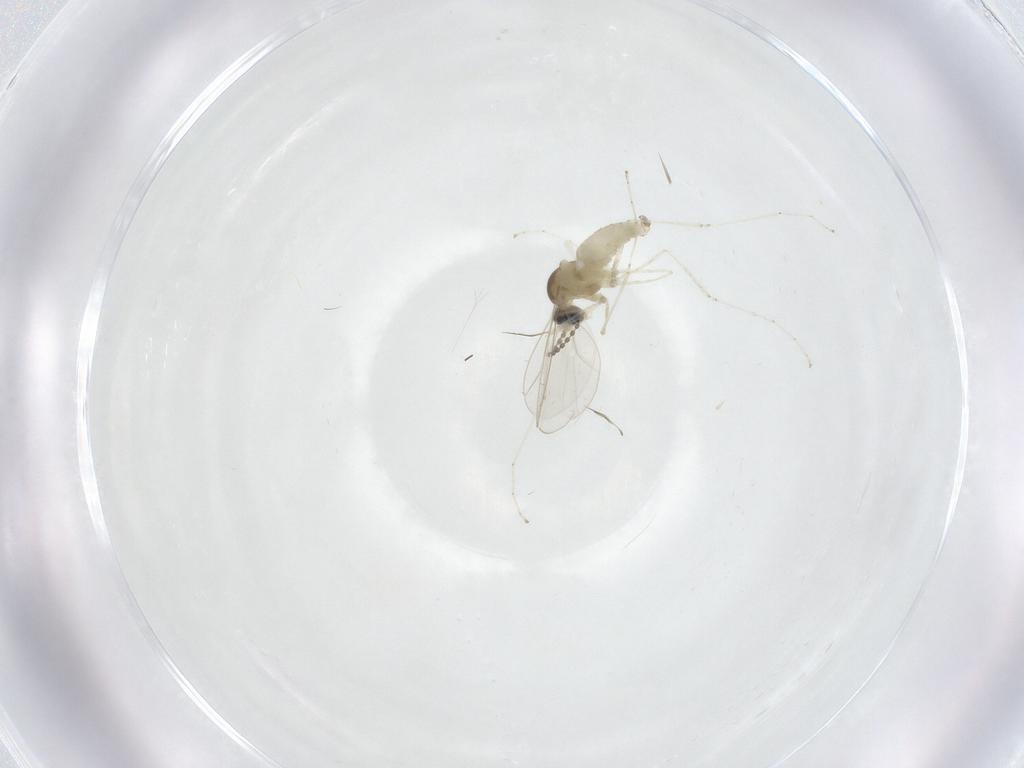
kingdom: Animalia
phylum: Arthropoda
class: Insecta
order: Diptera
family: Cecidomyiidae
